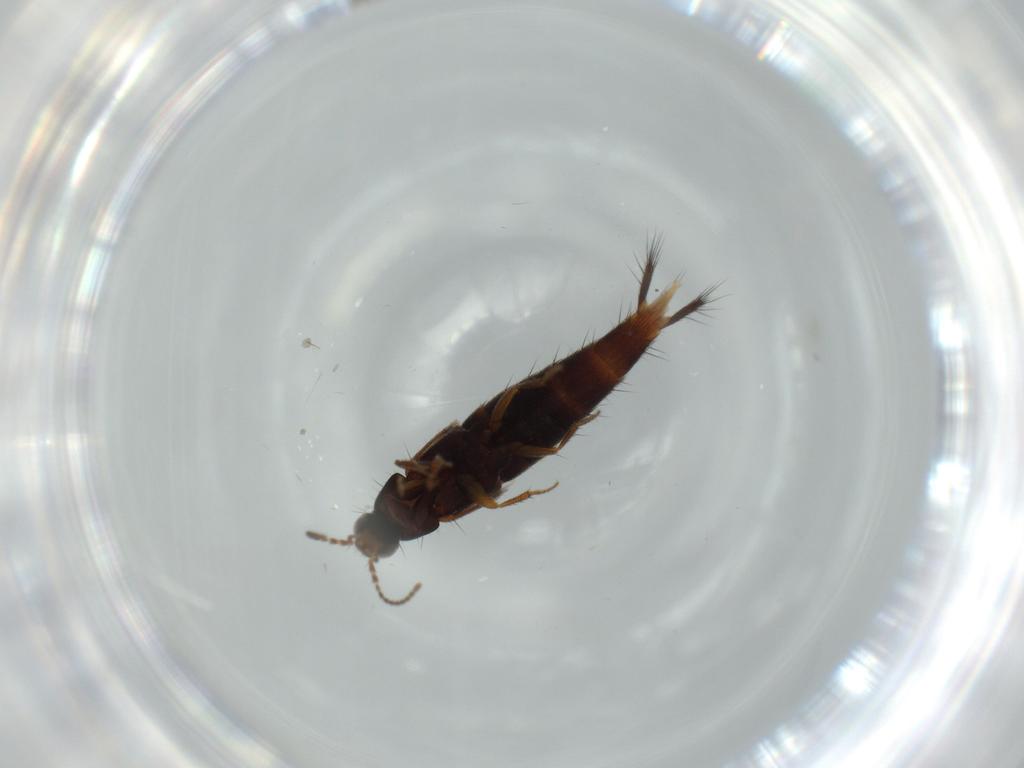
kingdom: Animalia
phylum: Arthropoda
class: Insecta
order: Coleoptera
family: Staphylinidae
